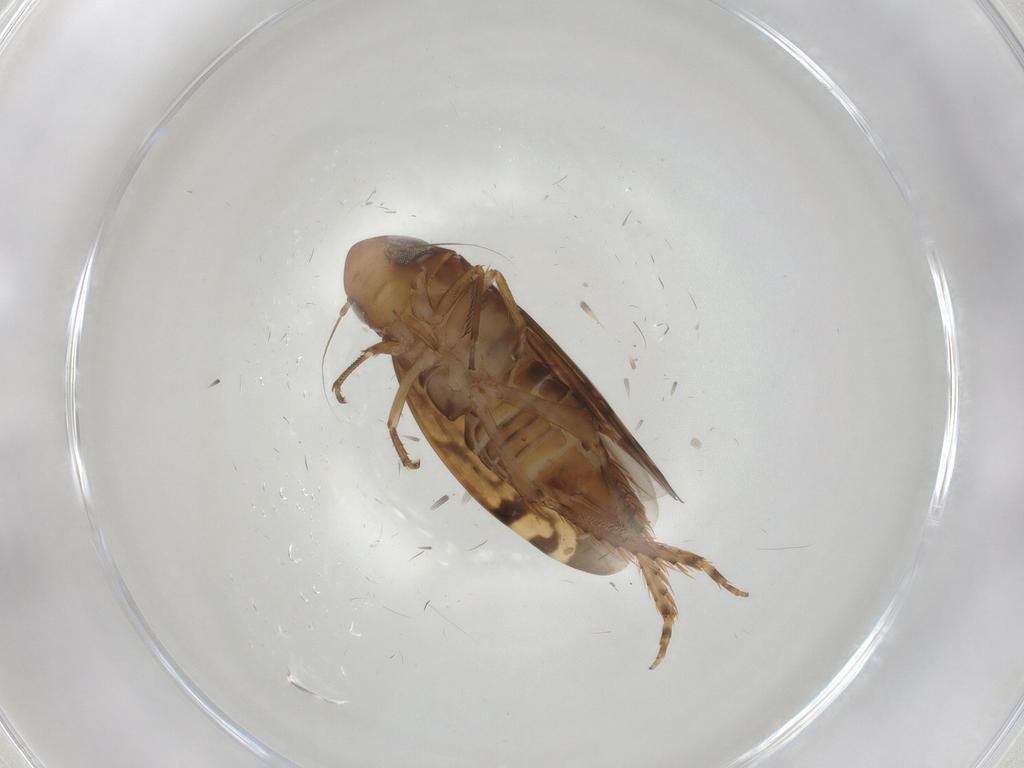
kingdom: Animalia
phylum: Arthropoda
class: Insecta
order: Hemiptera
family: Cicadellidae
